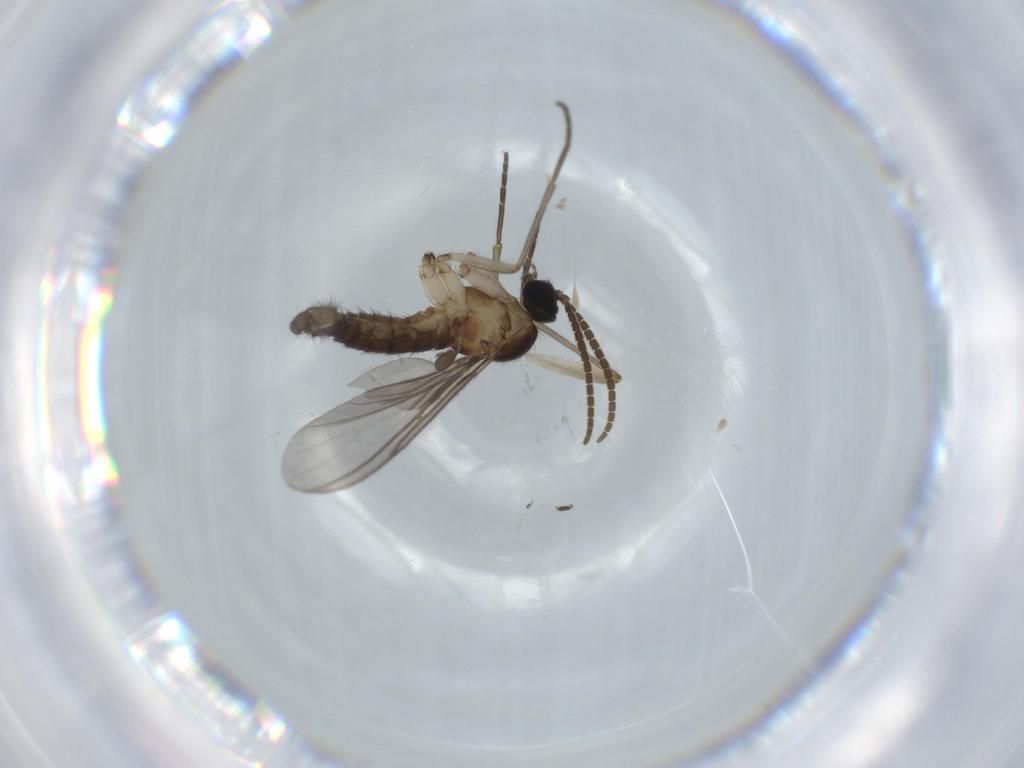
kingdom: Animalia
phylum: Arthropoda
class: Insecta
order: Diptera
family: Sciaridae
